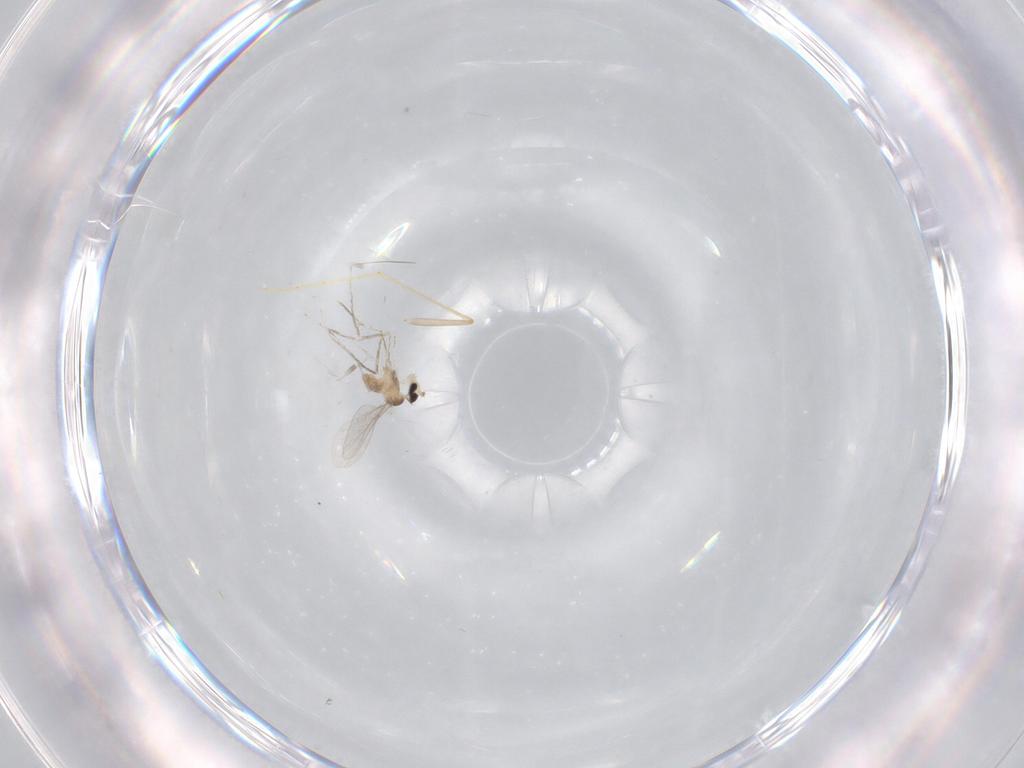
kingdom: Animalia
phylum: Arthropoda
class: Insecta
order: Diptera
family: Cecidomyiidae
